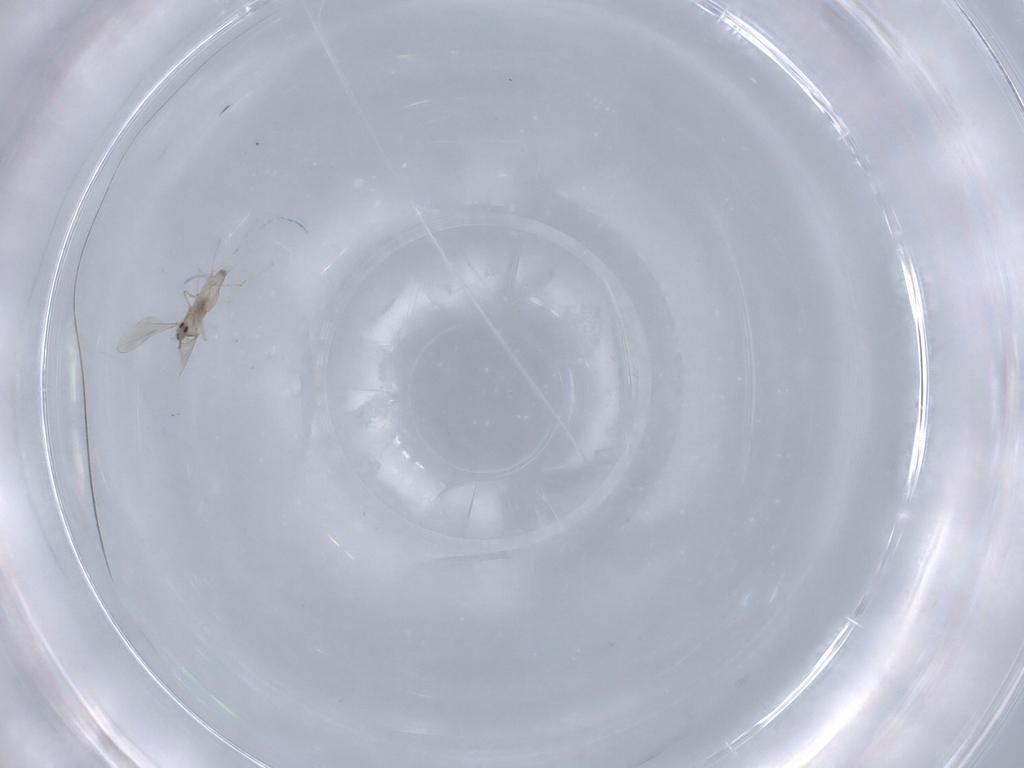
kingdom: Animalia
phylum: Arthropoda
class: Insecta
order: Diptera
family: Cecidomyiidae
